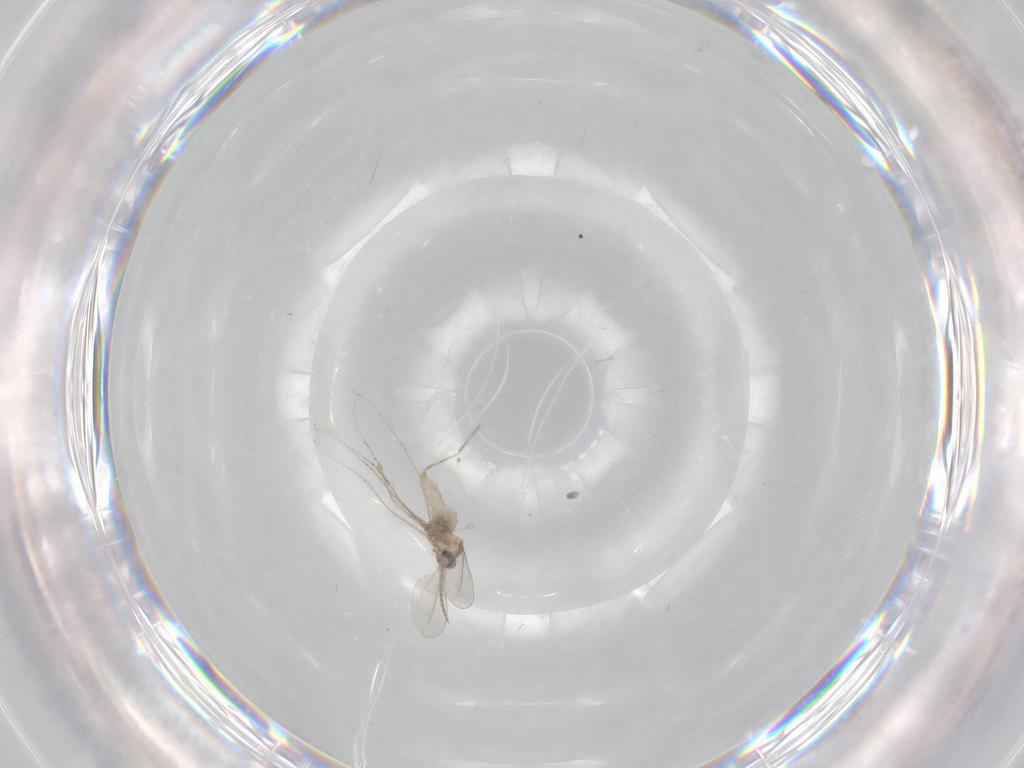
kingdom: Animalia
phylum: Arthropoda
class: Insecta
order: Diptera
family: Cecidomyiidae
